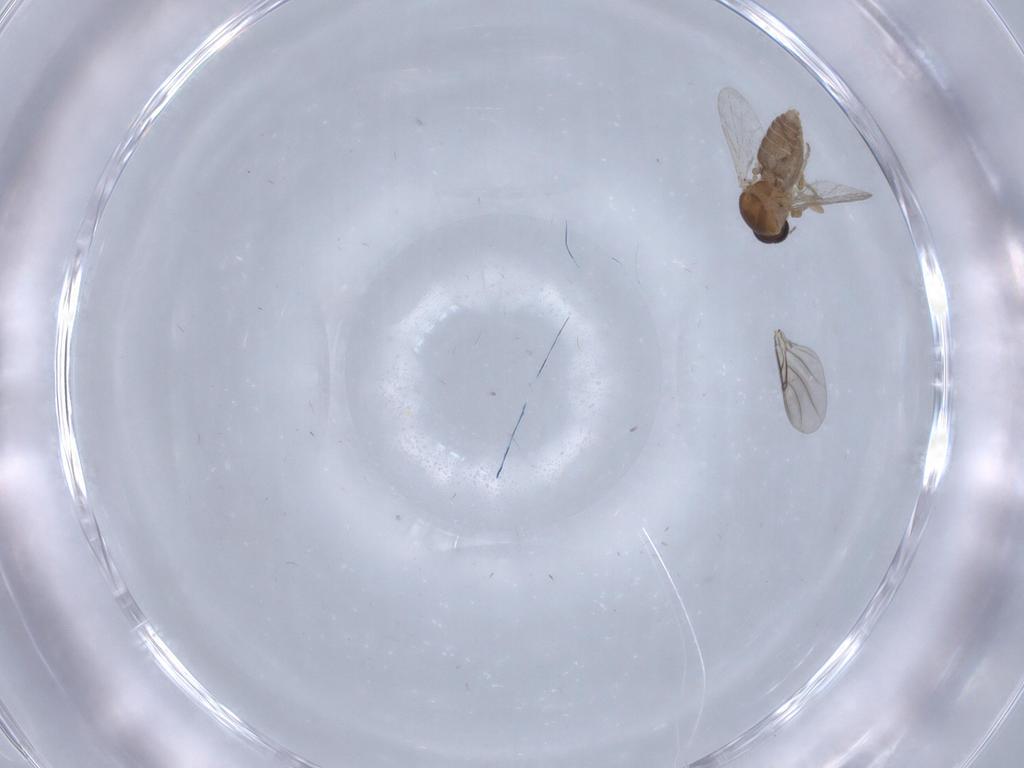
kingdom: Animalia
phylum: Arthropoda
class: Insecta
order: Diptera
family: Ceratopogonidae
